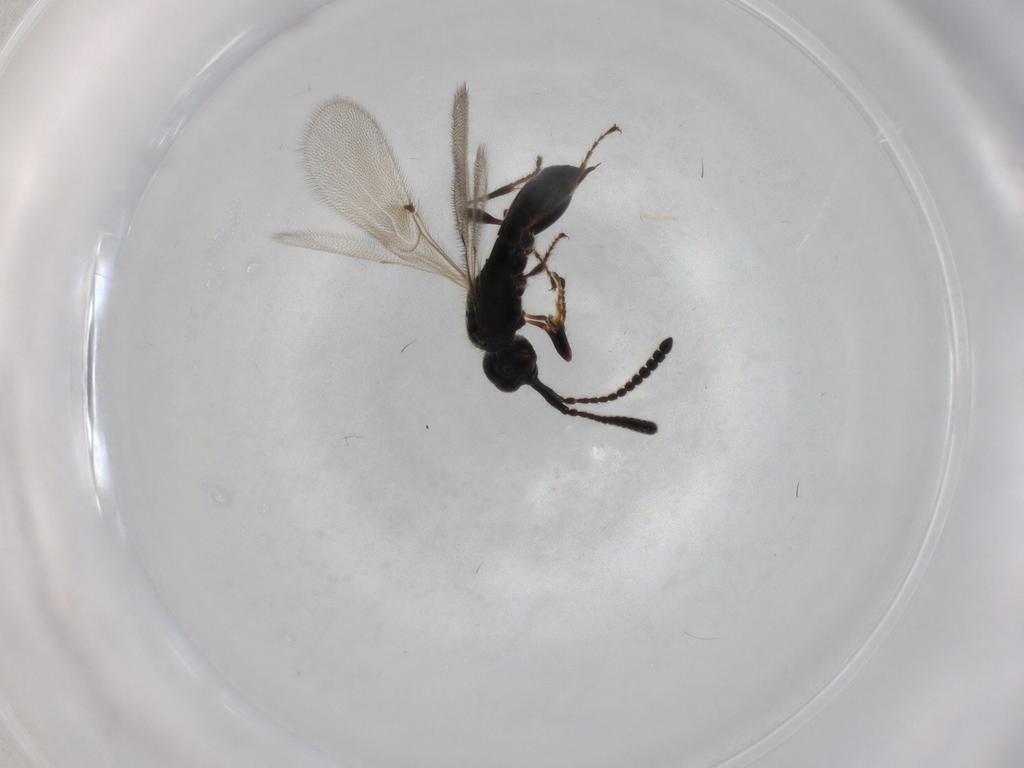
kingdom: Animalia
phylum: Arthropoda
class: Insecta
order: Hymenoptera
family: Diapriidae
